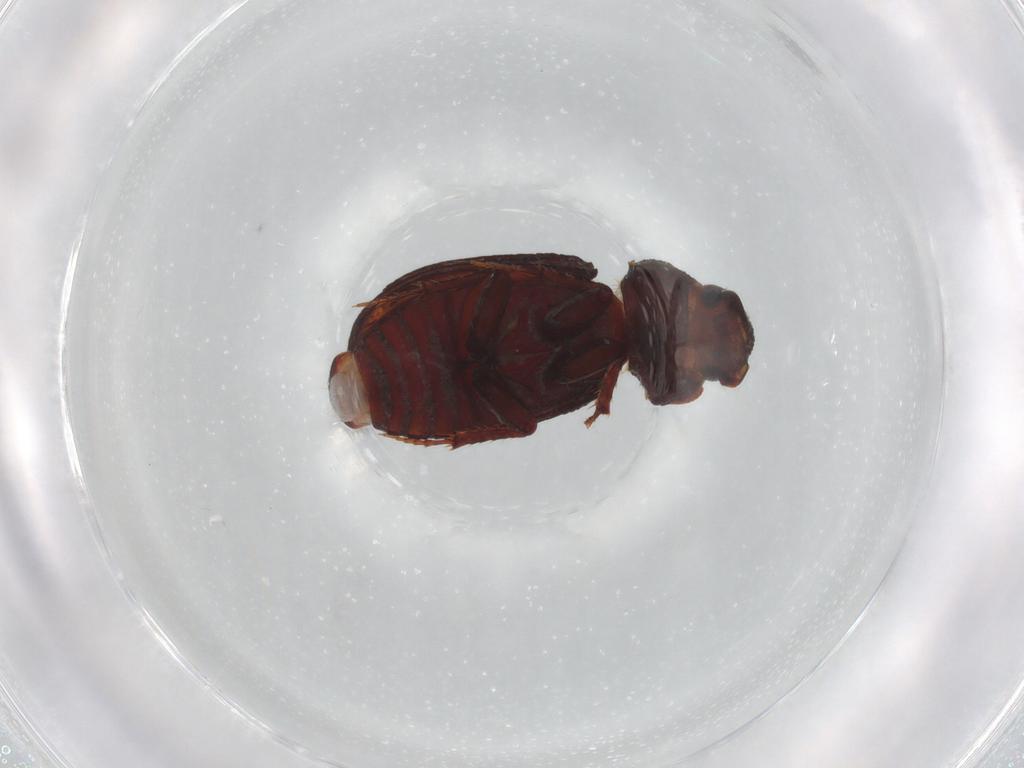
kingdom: Animalia
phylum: Arthropoda
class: Insecta
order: Coleoptera
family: Staphylinidae
